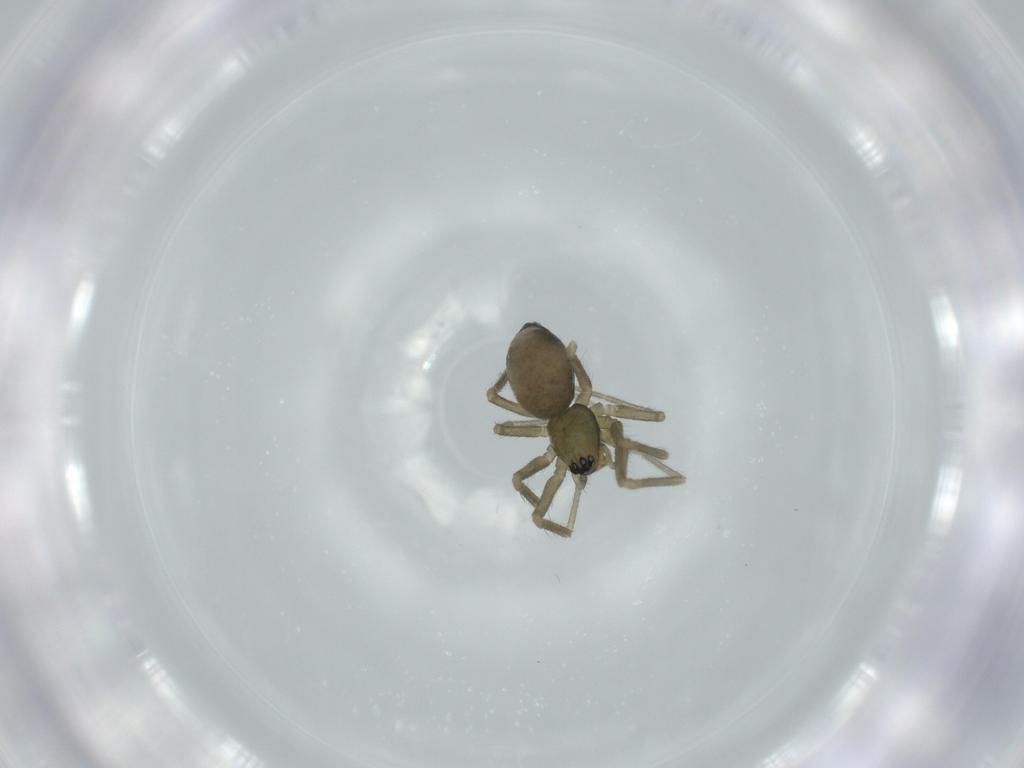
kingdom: Animalia
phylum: Arthropoda
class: Arachnida
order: Araneae
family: Linyphiidae
